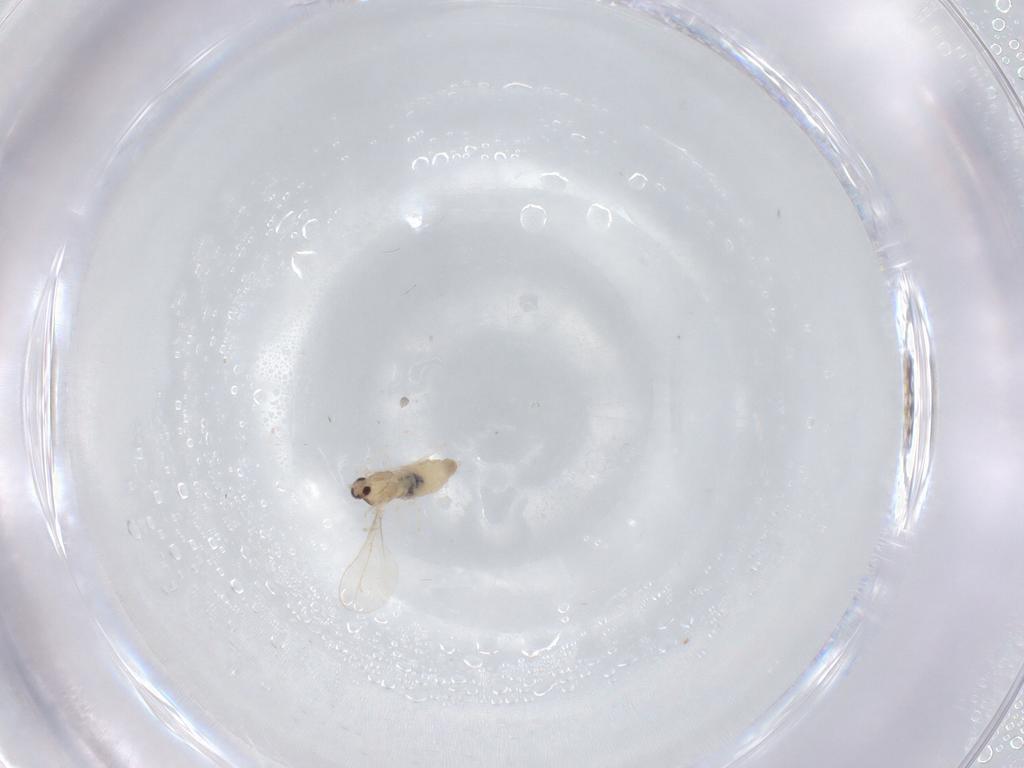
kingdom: Animalia
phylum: Arthropoda
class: Insecta
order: Diptera
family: Cecidomyiidae
